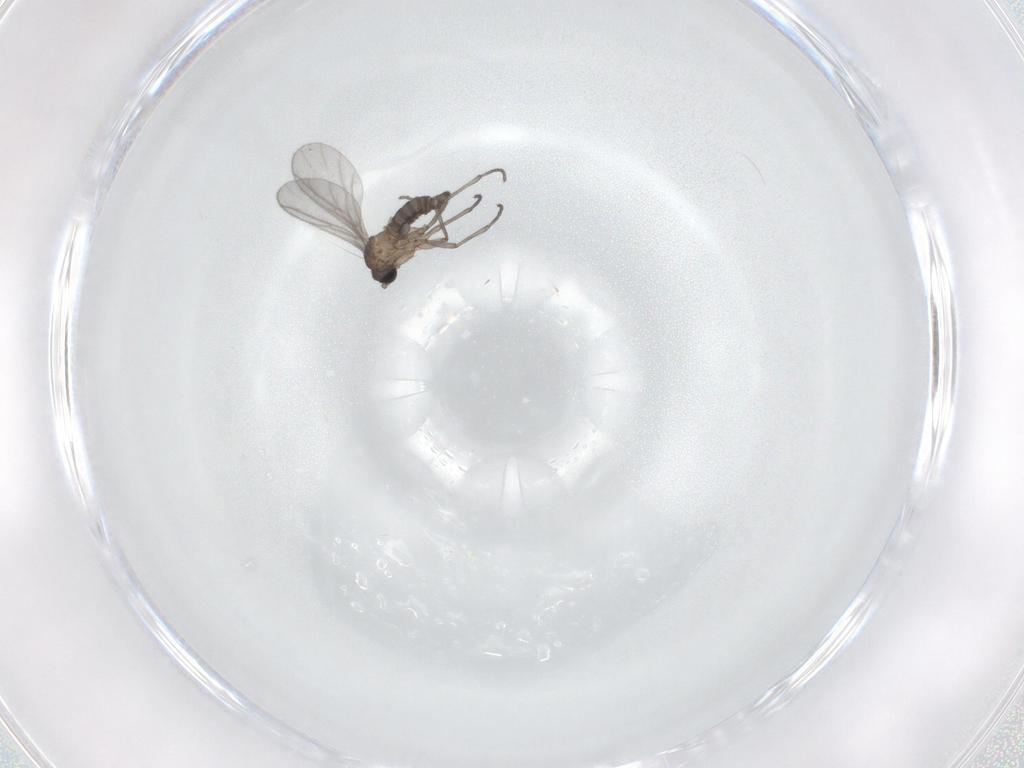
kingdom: Animalia
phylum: Arthropoda
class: Insecta
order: Diptera
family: Sciaridae
